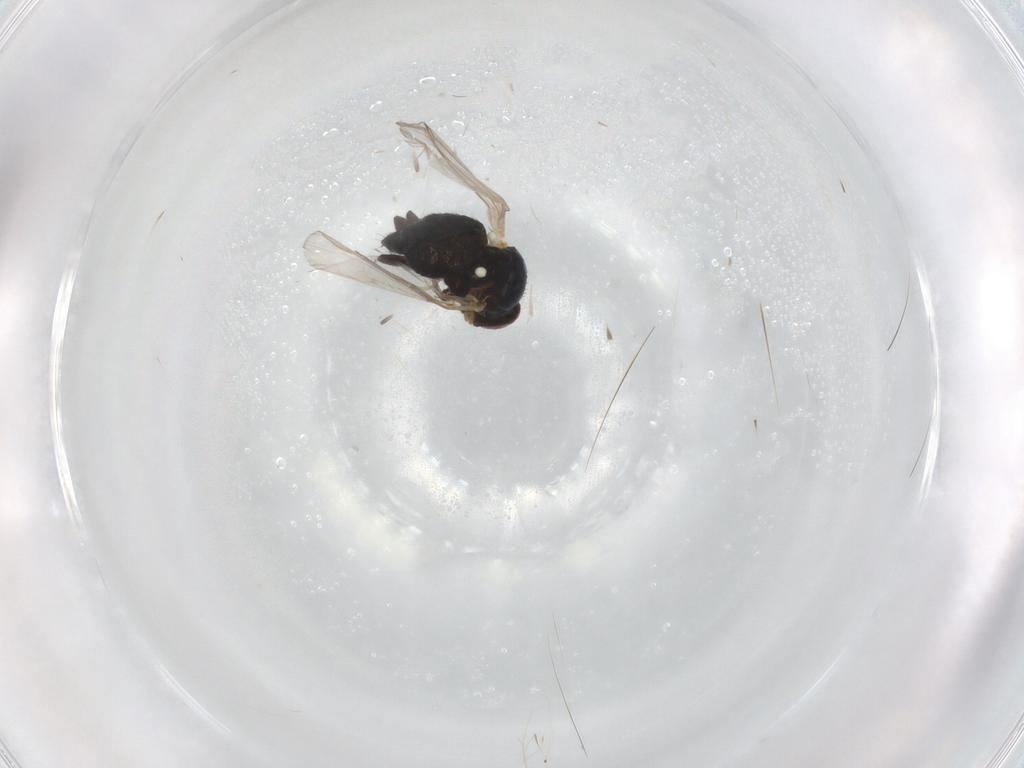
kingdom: Animalia
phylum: Arthropoda
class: Insecta
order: Diptera
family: Psychodidae
